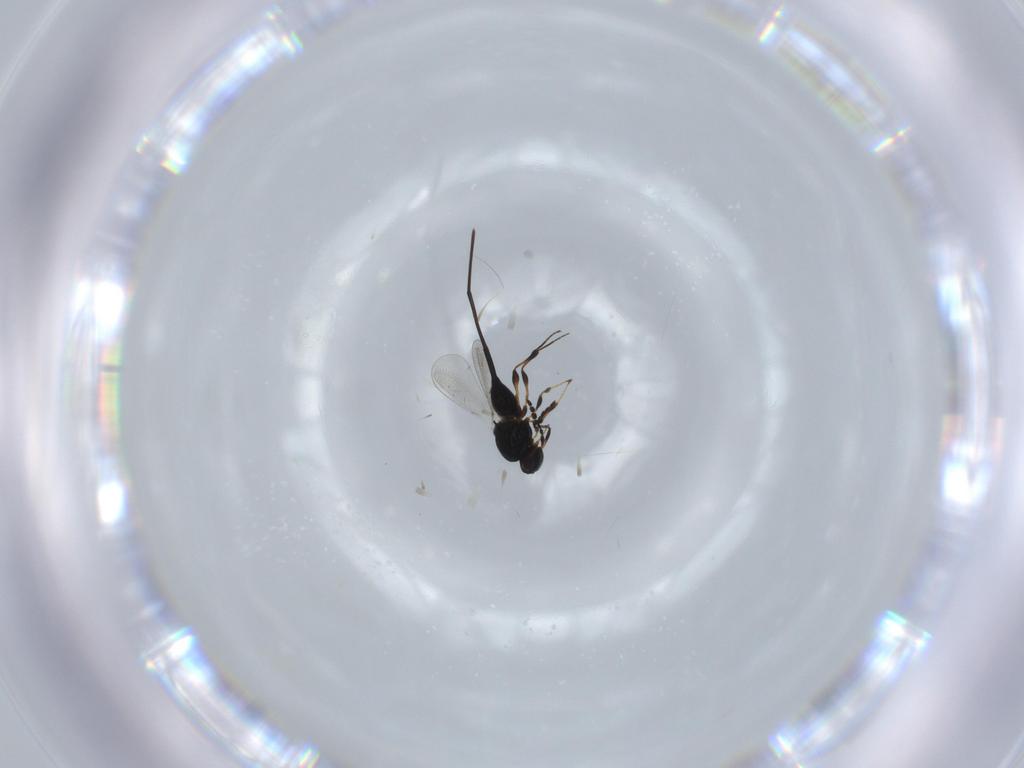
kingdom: Animalia
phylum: Arthropoda
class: Insecta
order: Hymenoptera
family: Platygastridae
